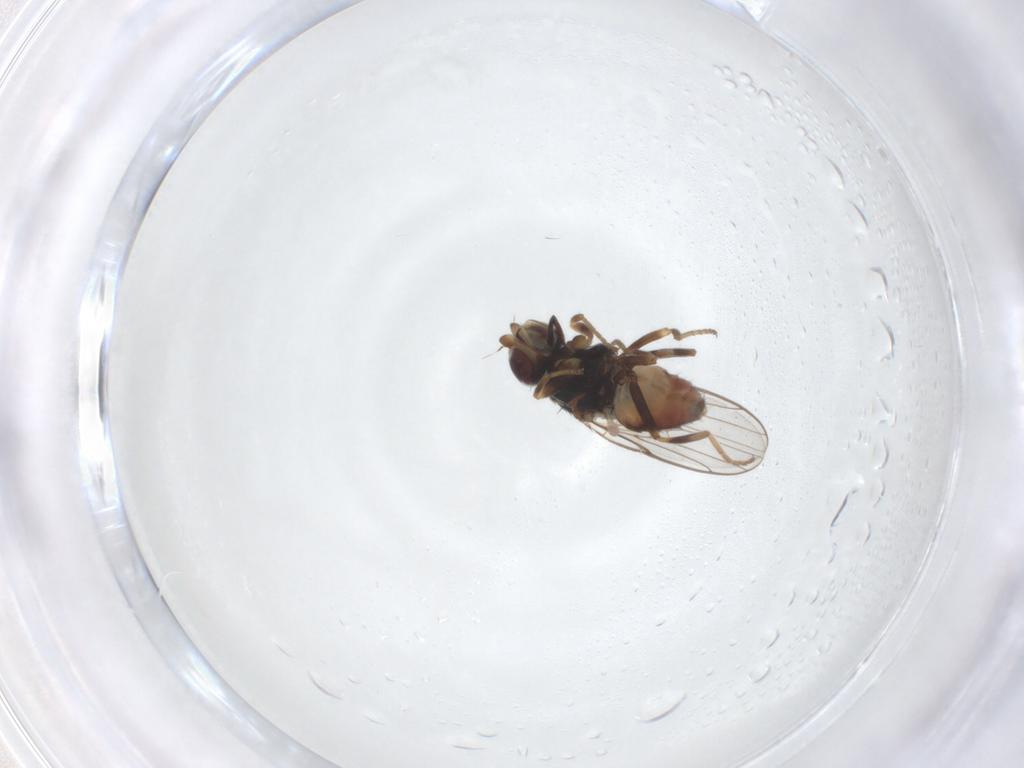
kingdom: Animalia
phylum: Arthropoda
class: Insecta
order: Diptera
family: Chloropidae
